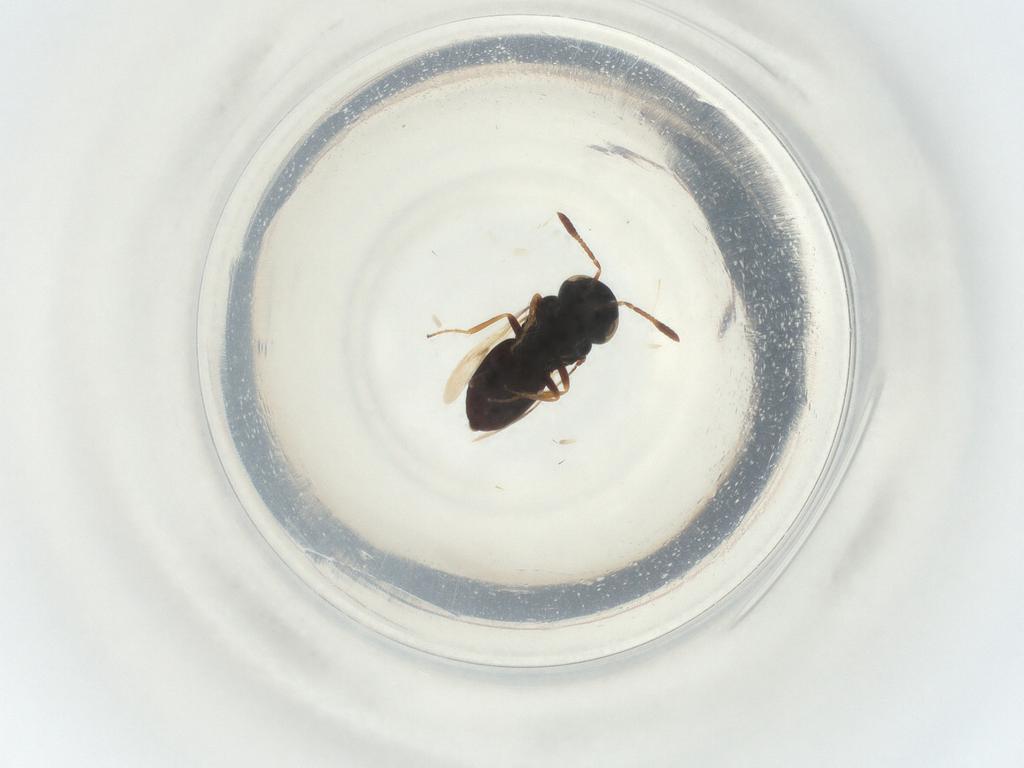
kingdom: Animalia
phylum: Arthropoda
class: Insecta
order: Hymenoptera
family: Scelionidae
